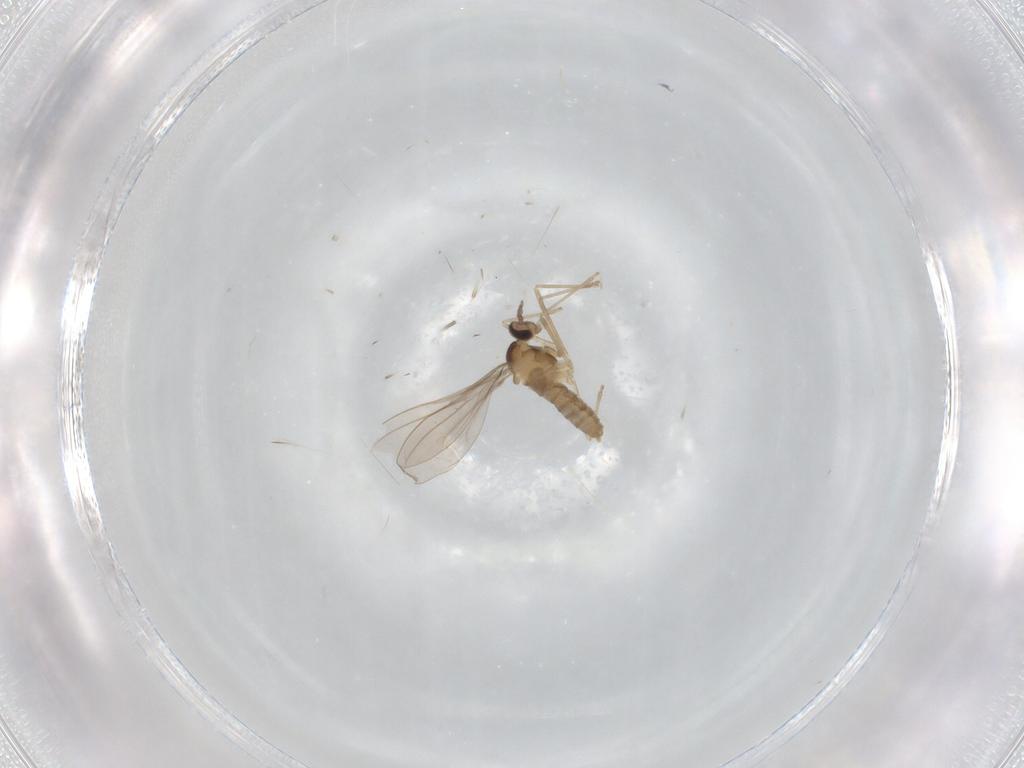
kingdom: Animalia
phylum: Arthropoda
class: Insecta
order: Diptera
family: Cecidomyiidae
